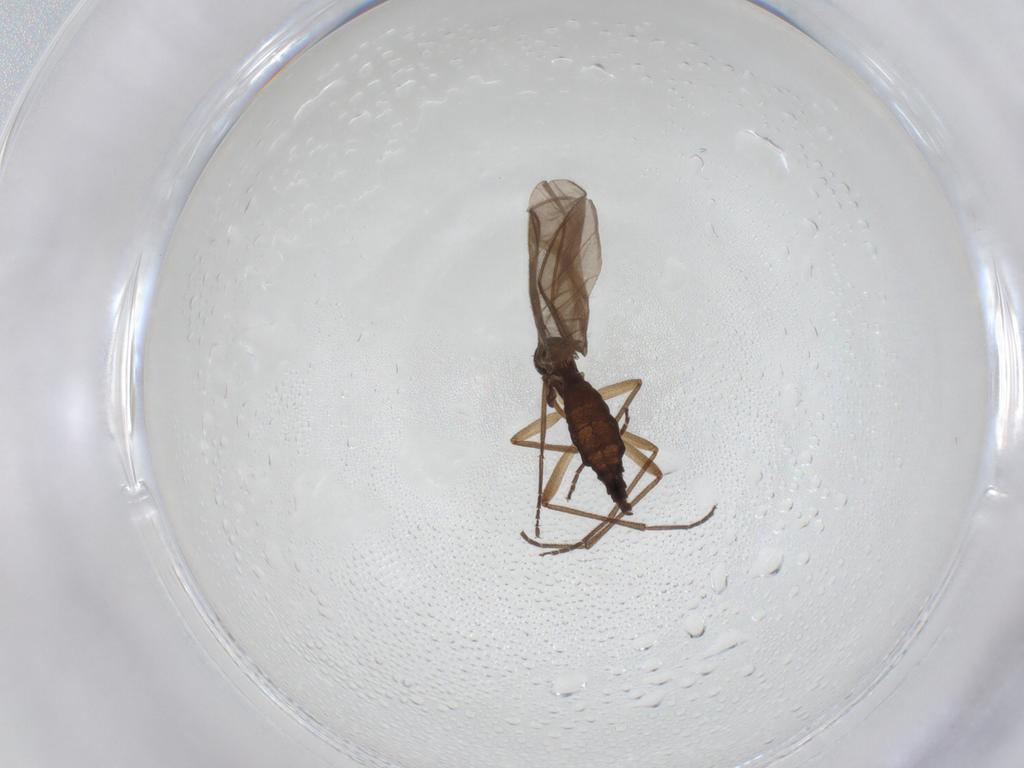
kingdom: Animalia
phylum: Arthropoda
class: Insecta
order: Diptera
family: Sciaridae
